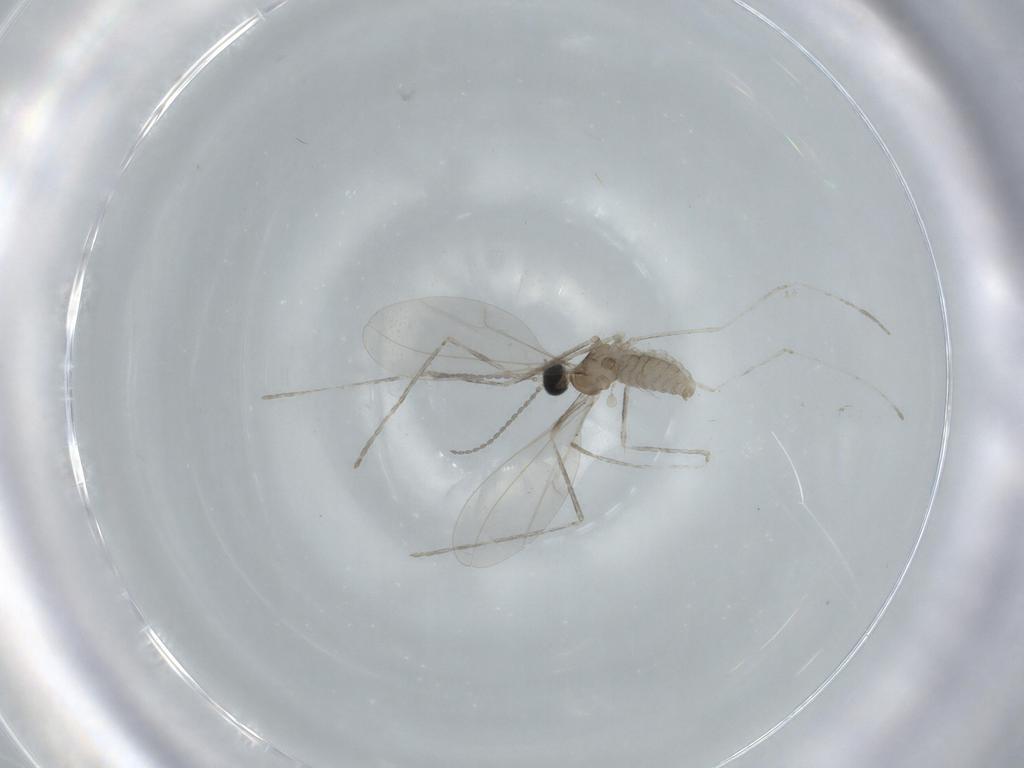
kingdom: Animalia
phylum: Arthropoda
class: Insecta
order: Diptera
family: Cecidomyiidae
